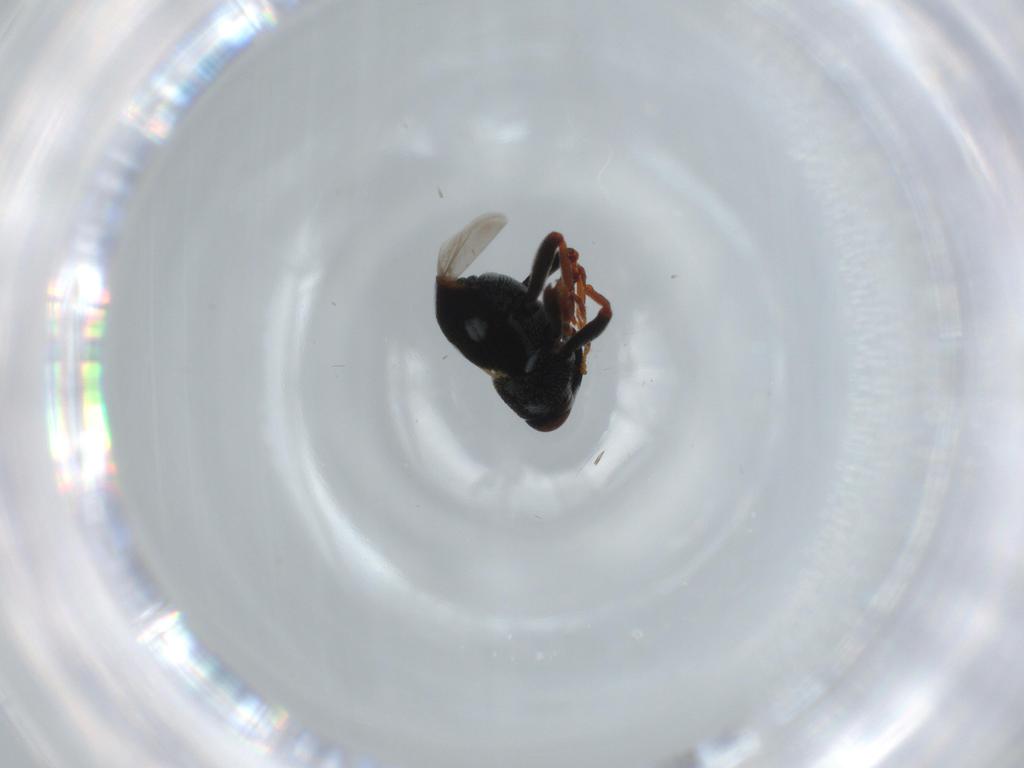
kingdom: Animalia
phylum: Arthropoda
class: Insecta
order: Coleoptera
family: Curculionidae
